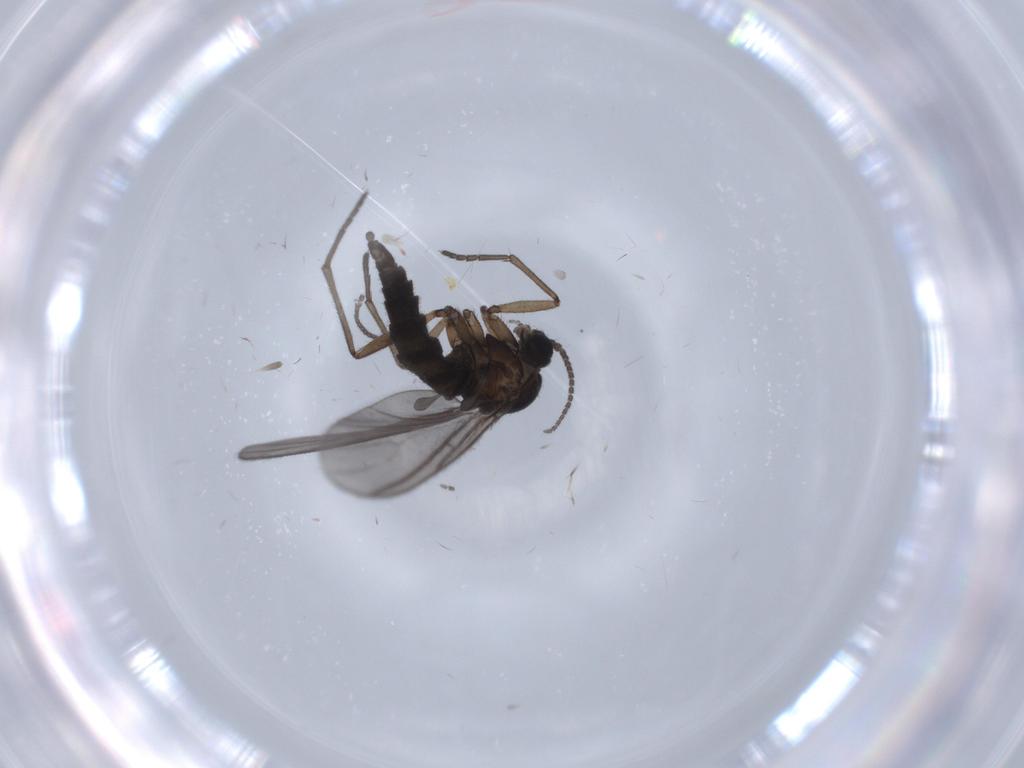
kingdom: Animalia
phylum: Arthropoda
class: Insecta
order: Diptera
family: Sciaridae
